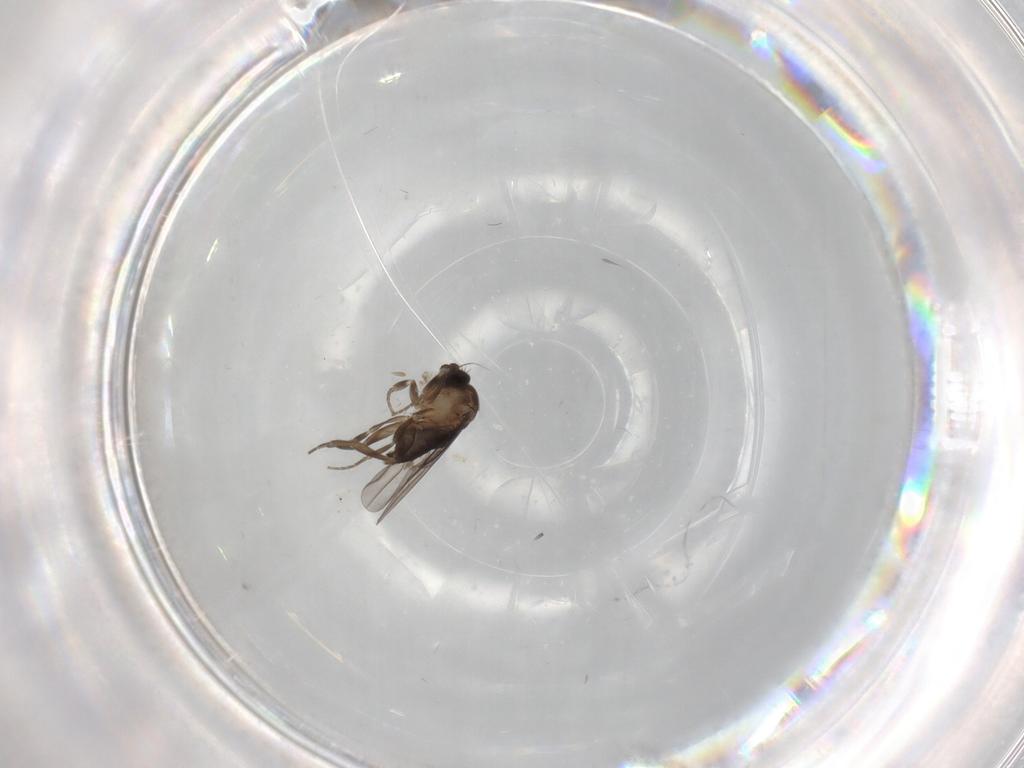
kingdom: Animalia
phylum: Arthropoda
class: Insecta
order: Diptera
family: Phoridae
